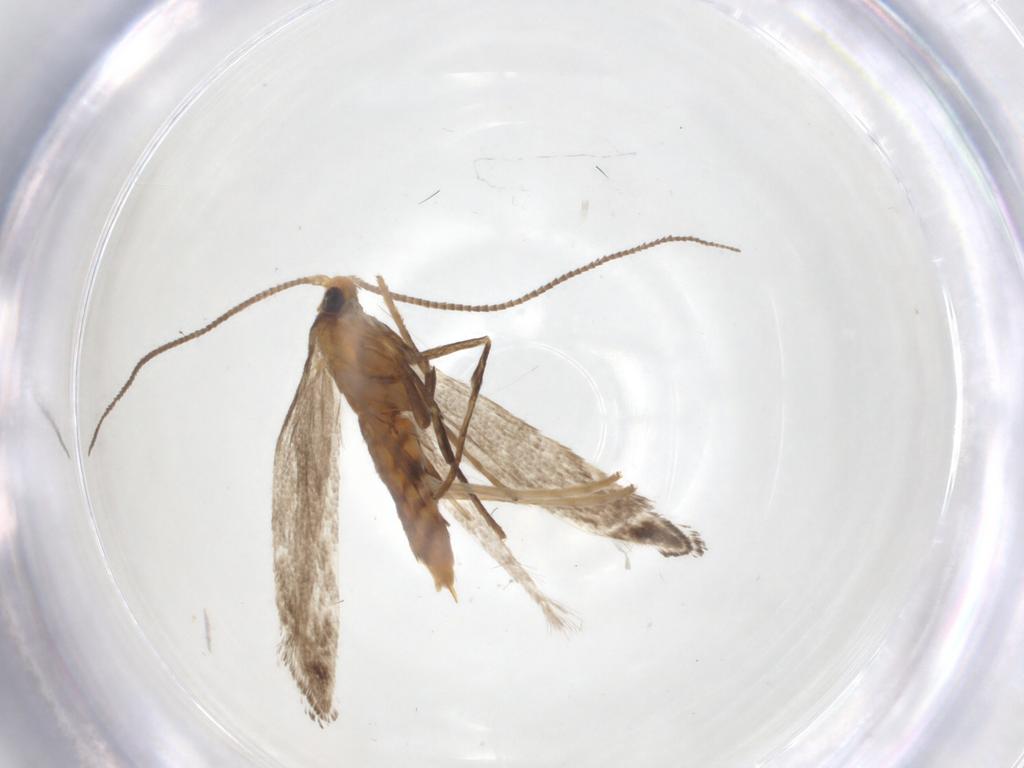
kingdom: Animalia
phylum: Arthropoda
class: Insecta
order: Lepidoptera
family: Gracillariidae
